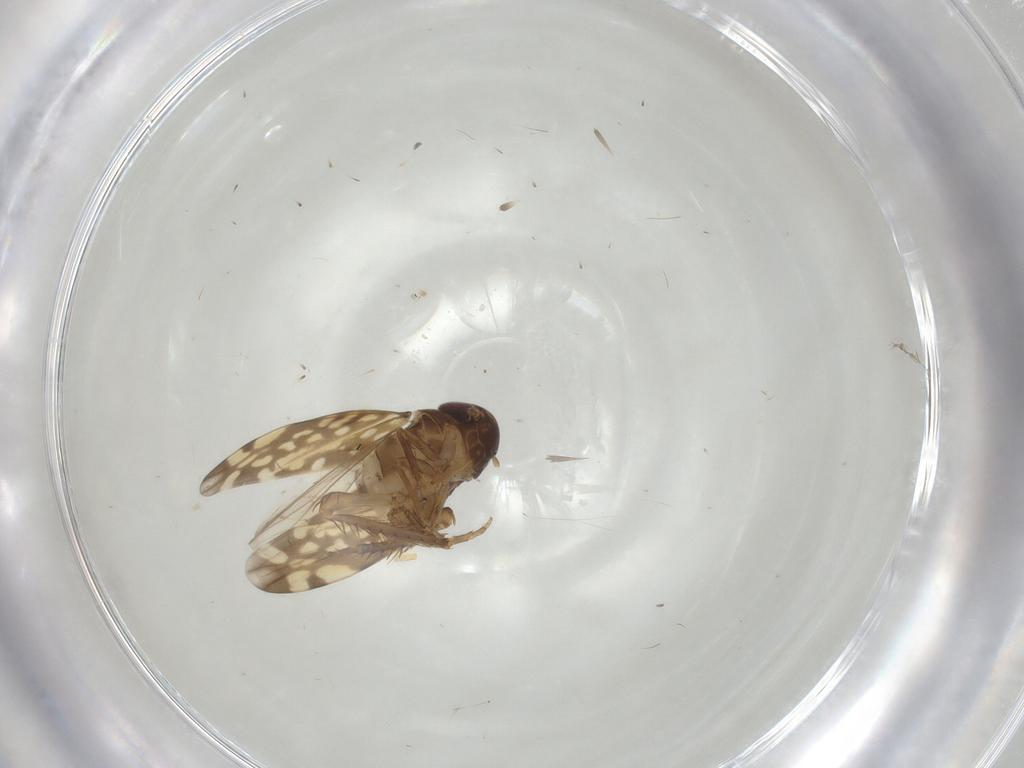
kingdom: Animalia
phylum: Arthropoda
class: Insecta
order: Hemiptera
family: Cicadellidae
